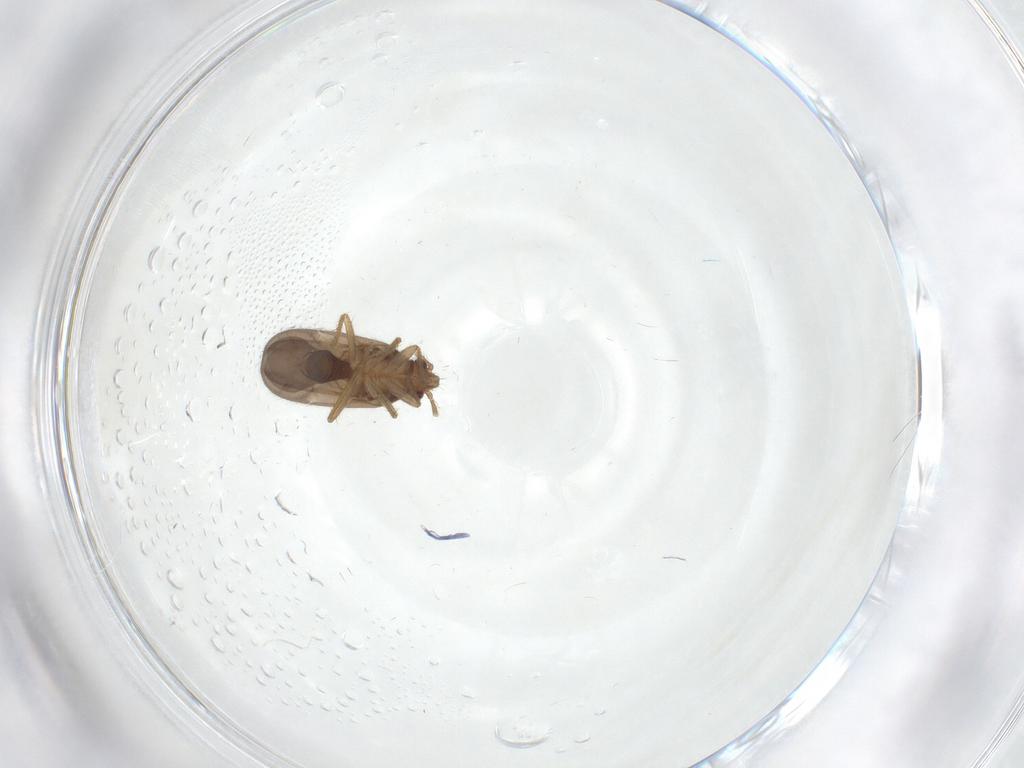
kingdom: Animalia
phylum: Arthropoda
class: Insecta
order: Hemiptera
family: Ceratocombidae
